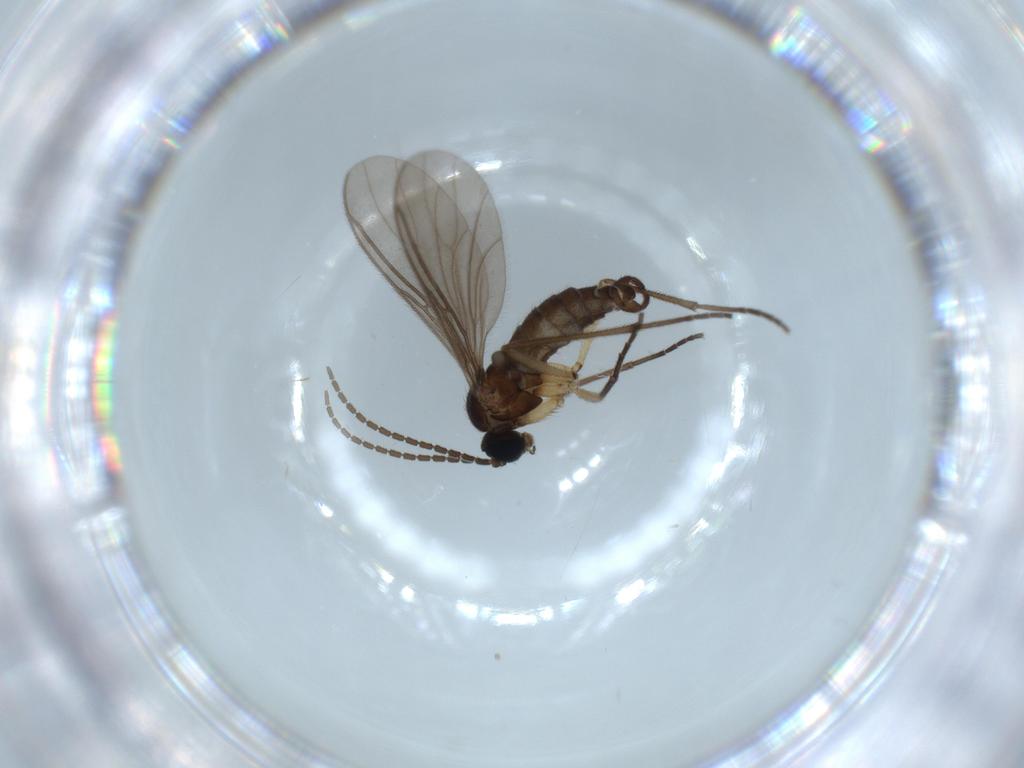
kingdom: Animalia
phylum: Arthropoda
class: Insecta
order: Diptera
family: Sciaridae
